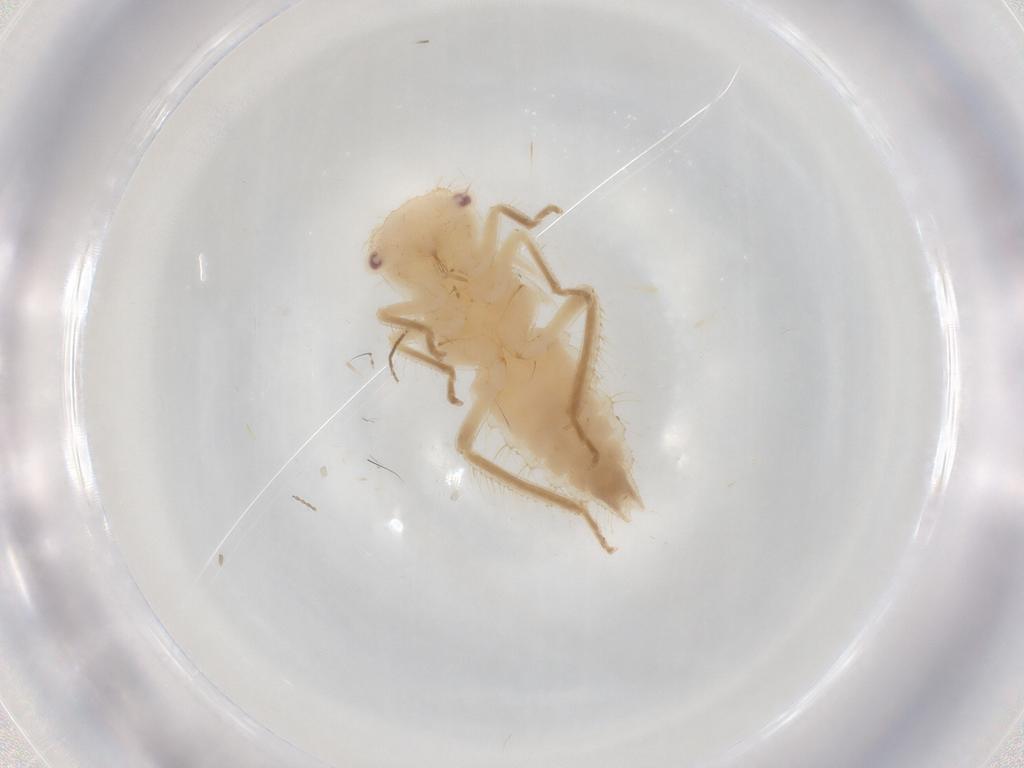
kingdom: Animalia
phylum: Arthropoda
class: Insecta
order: Hemiptera
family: Cicadellidae
